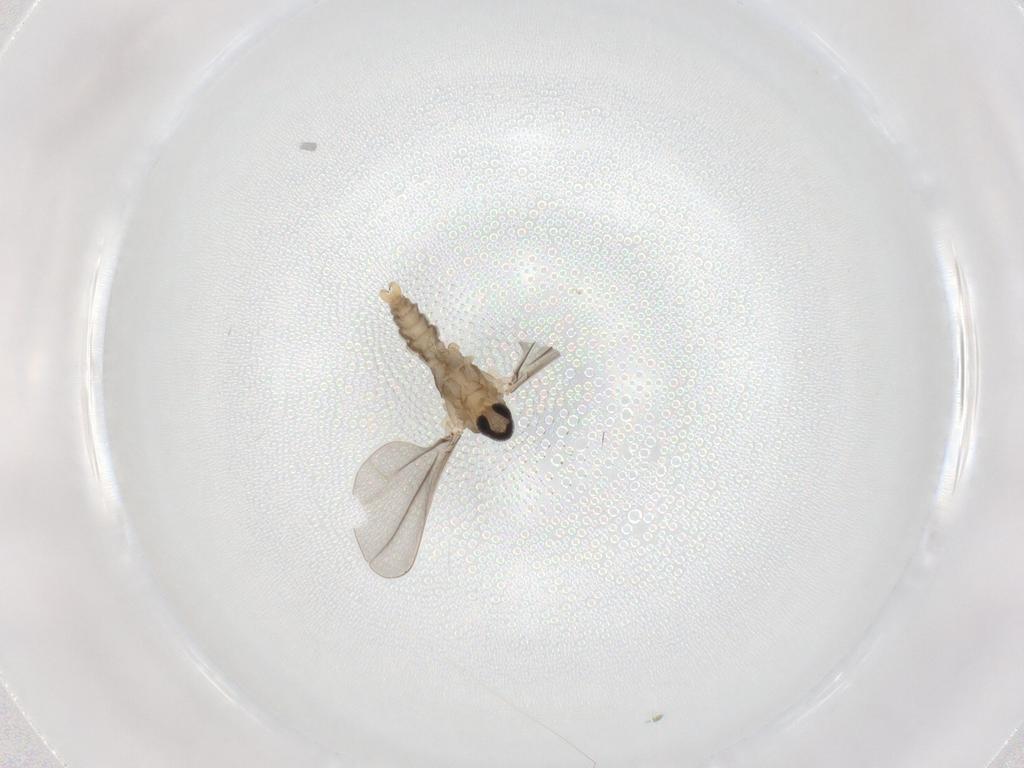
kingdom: Animalia
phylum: Arthropoda
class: Insecta
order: Diptera
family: Cecidomyiidae
